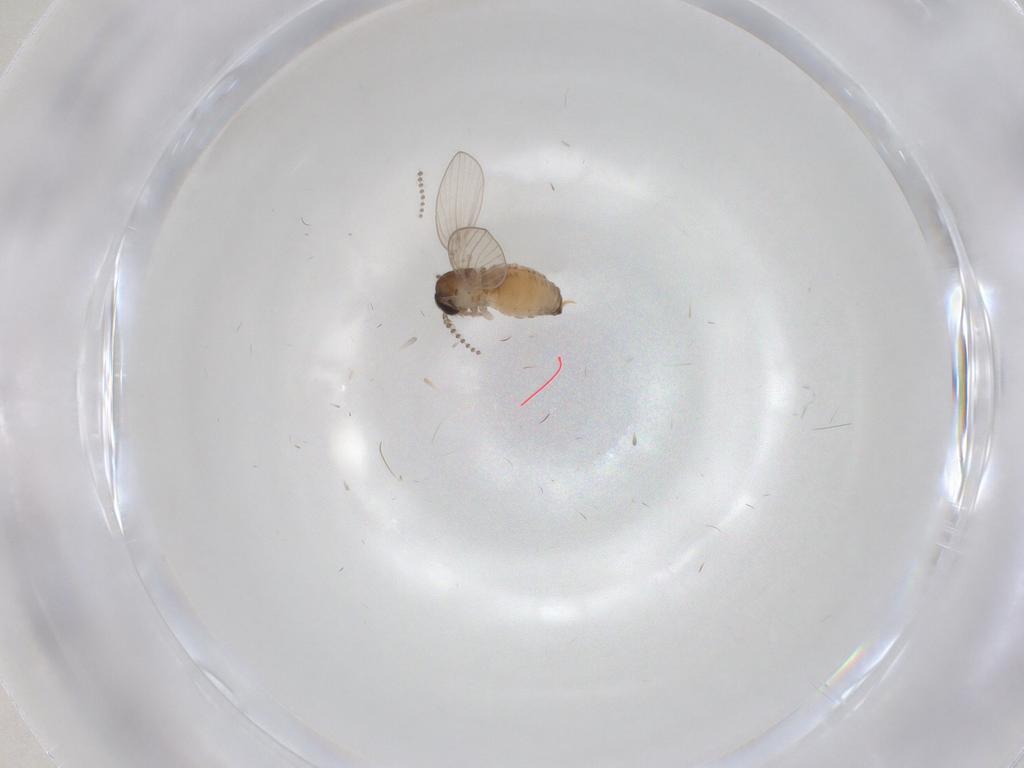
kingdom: Animalia
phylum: Arthropoda
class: Insecta
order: Diptera
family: Psychodidae
